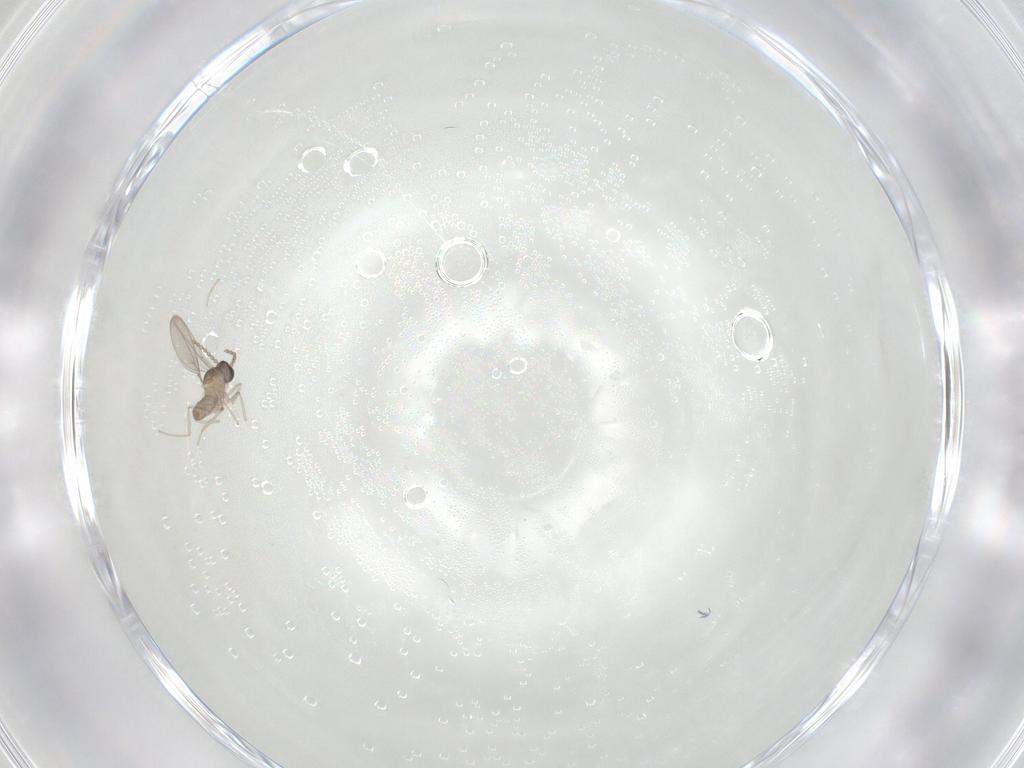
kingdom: Animalia
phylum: Arthropoda
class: Insecta
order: Diptera
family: Cecidomyiidae
